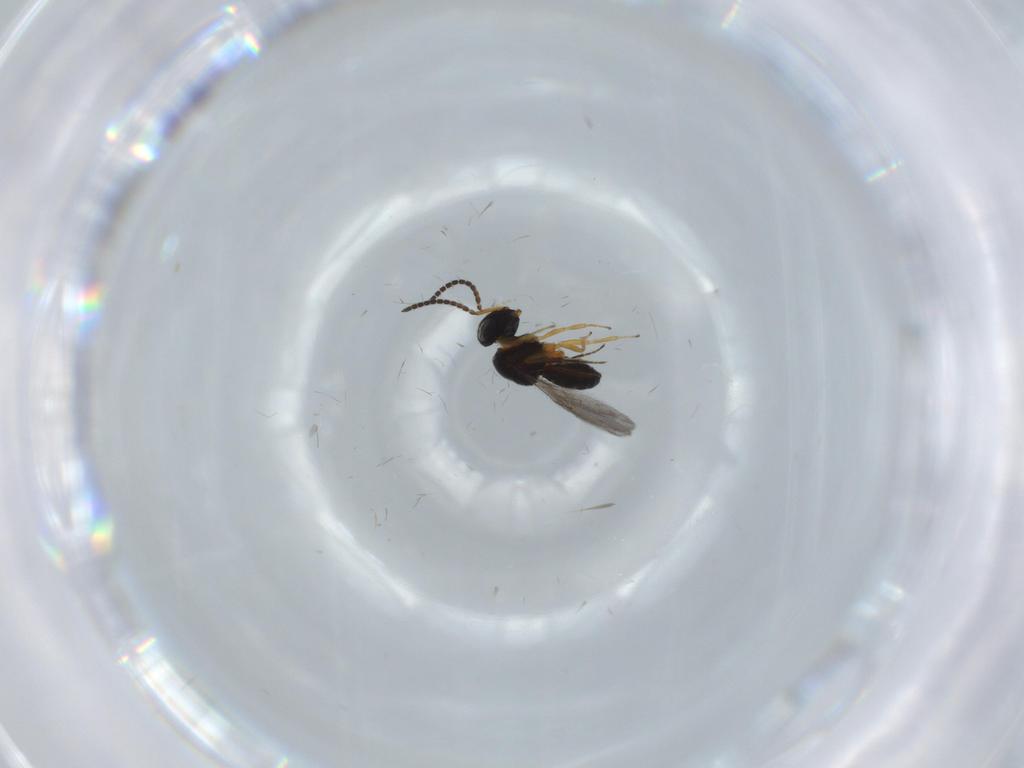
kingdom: Animalia
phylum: Arthropoda
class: Insecta
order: Hymenoptera
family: Scelionidae
